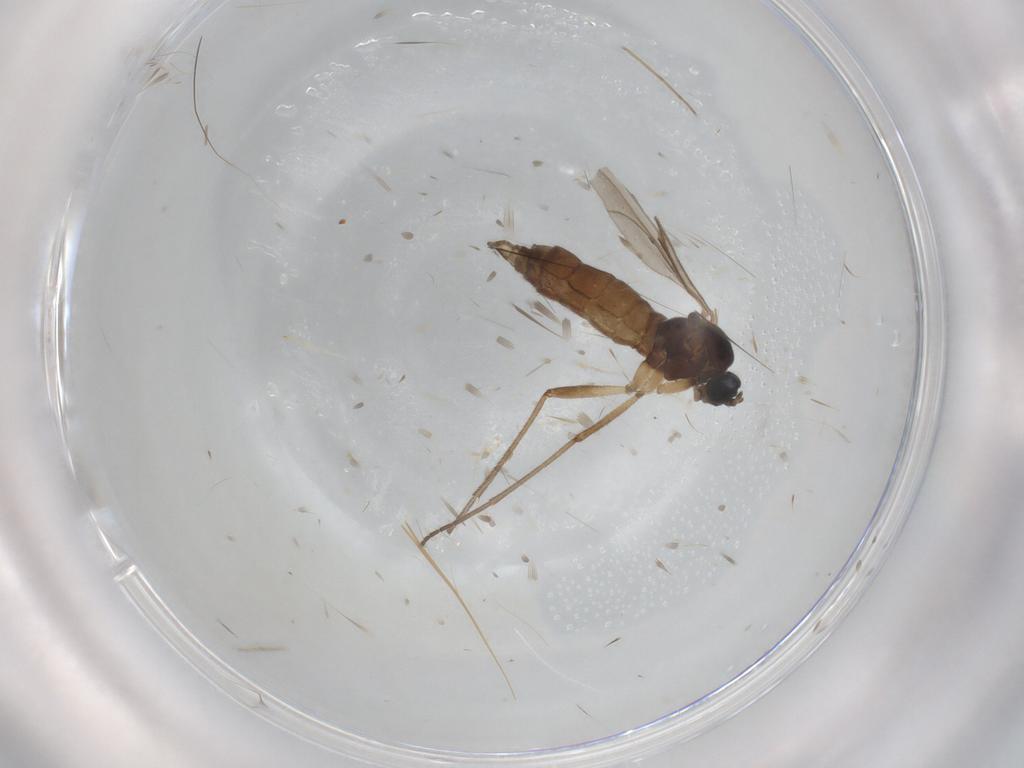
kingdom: Animalia
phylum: Arthropoda
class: Insecta
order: Diptera
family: Sciaridae
